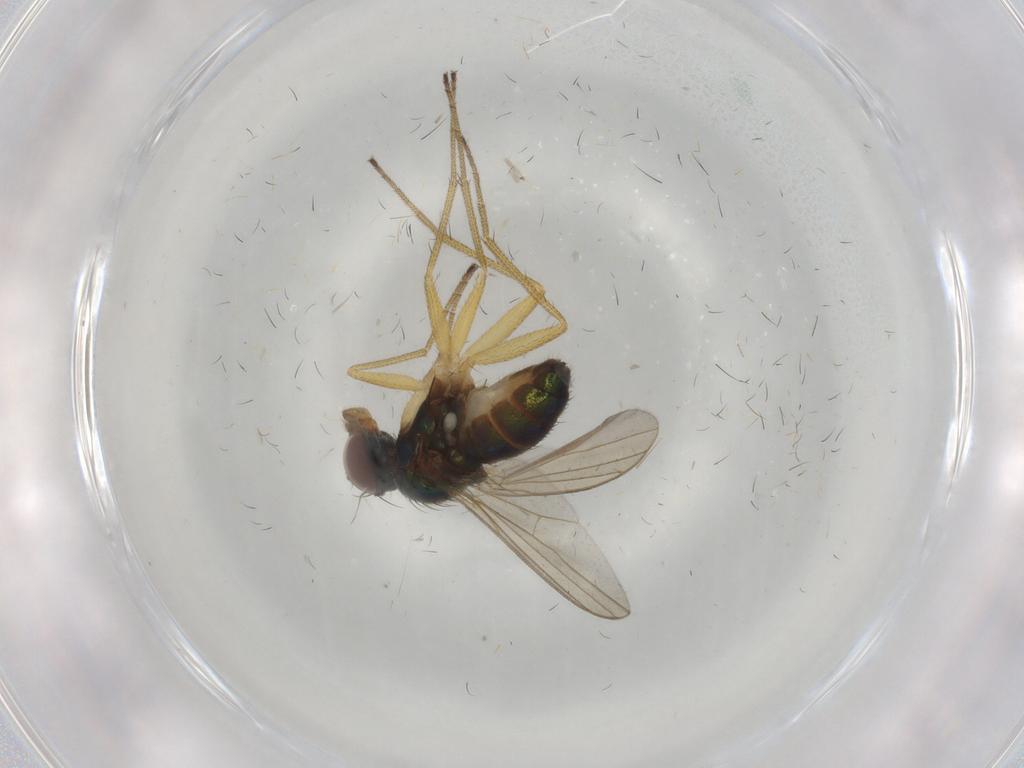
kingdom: Animalia
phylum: Arthropoda
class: Insecta
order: Diptera
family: Dolichopodidae
